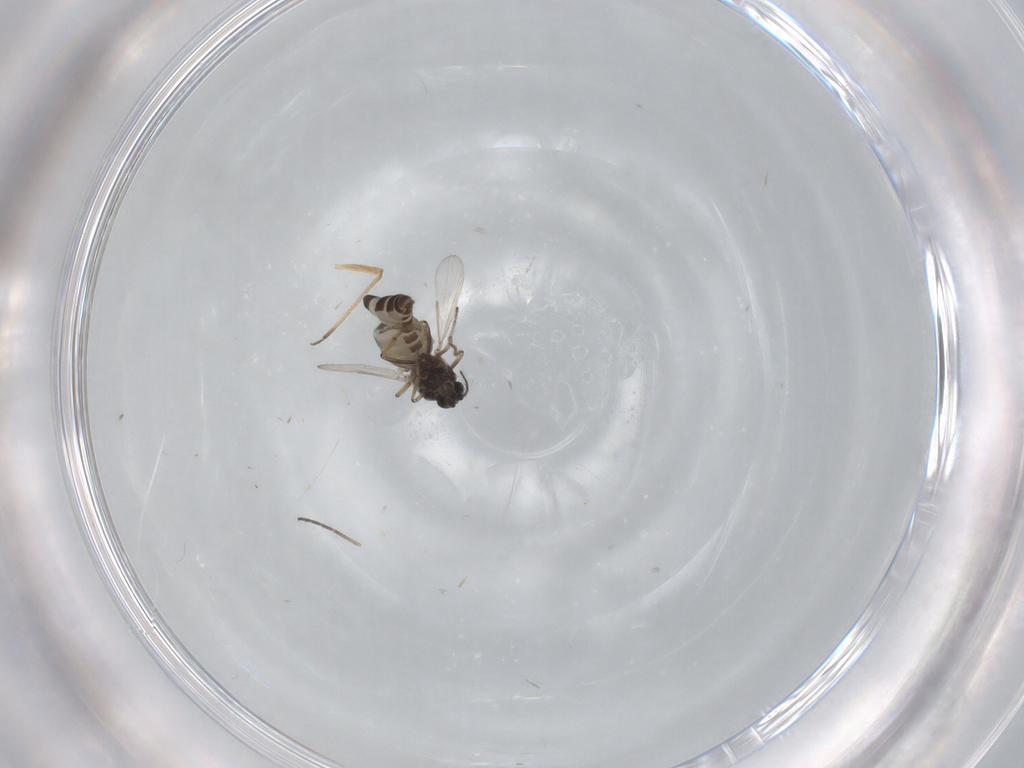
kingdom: Animalia
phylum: Arthropoda
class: Insecta
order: Diptera
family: Ceratopogonidae
